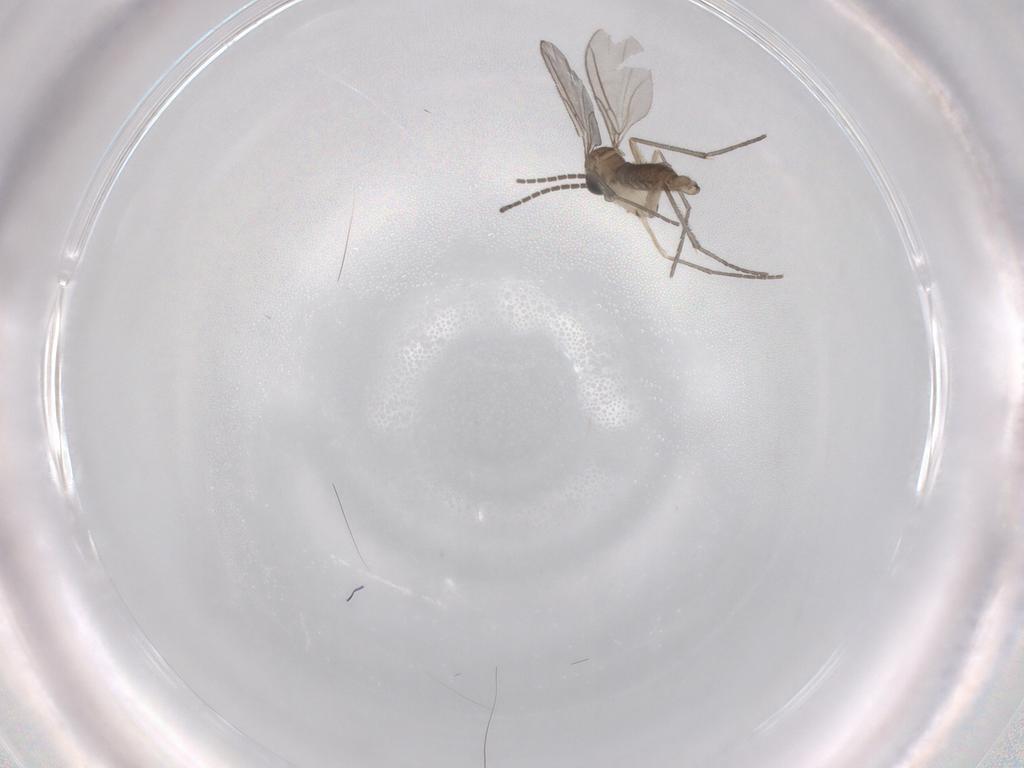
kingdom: Animalia
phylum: Arthropoda
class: Insecta
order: Diptera
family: Sciaridae
